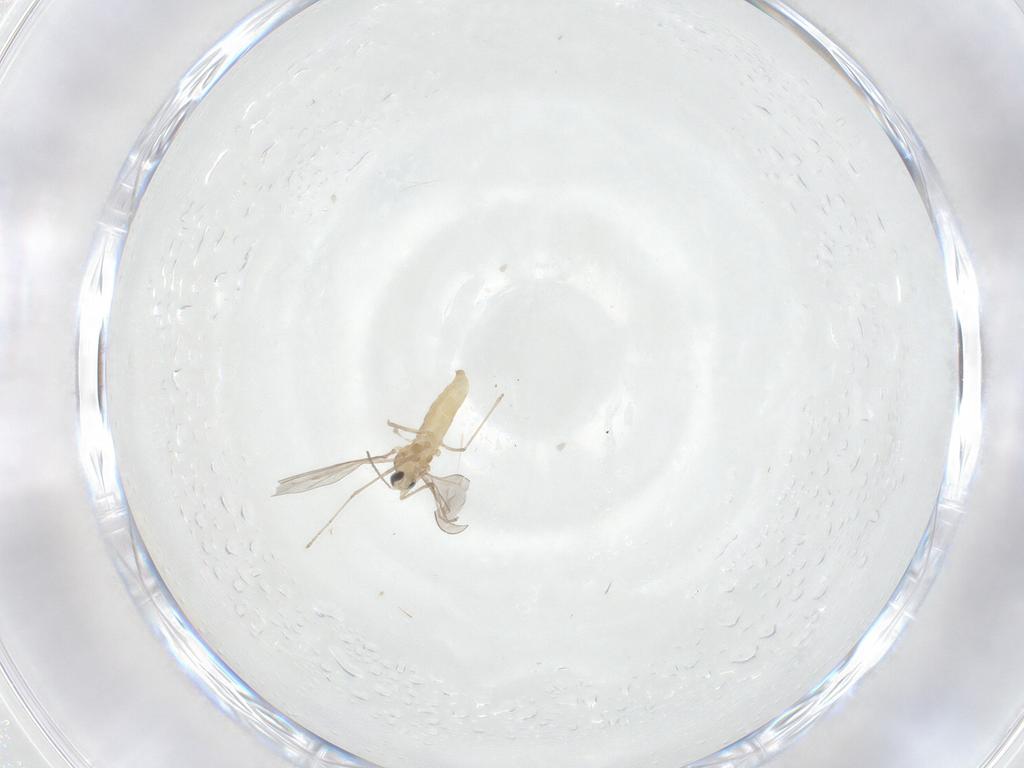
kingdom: Animalia
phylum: Arthropoda
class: Insecta
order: Diptera
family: Cecidomyiidae
